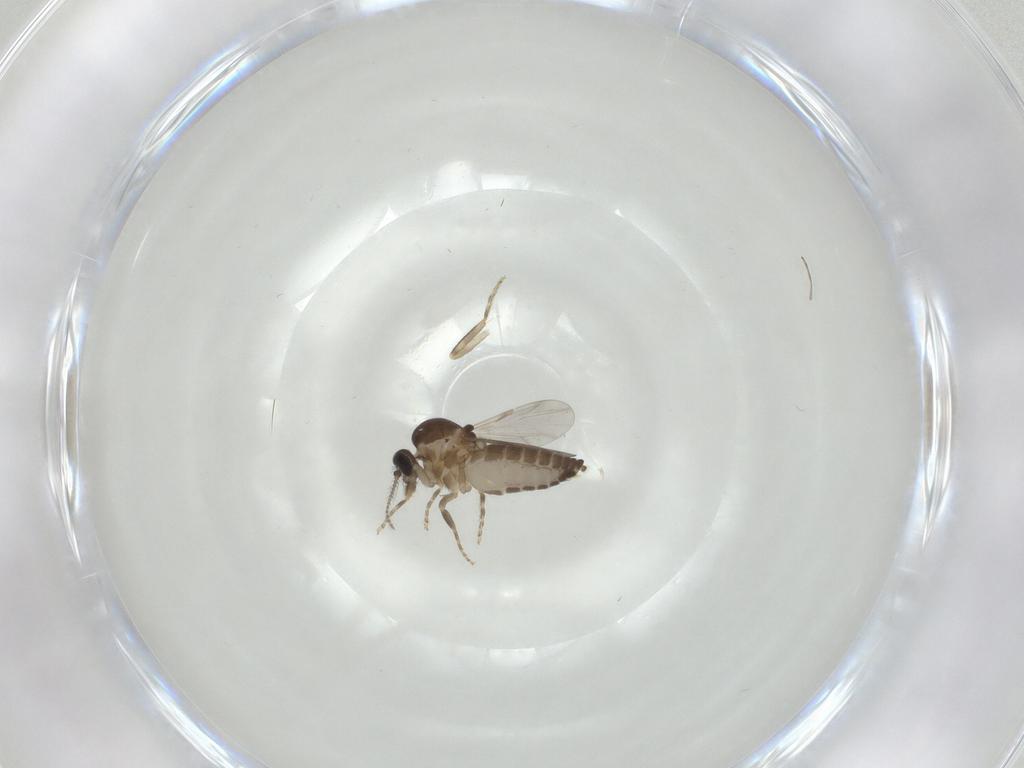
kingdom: Animalia
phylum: Arthropoda
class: Insecta
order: Diptera
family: Ceratopogonidae
